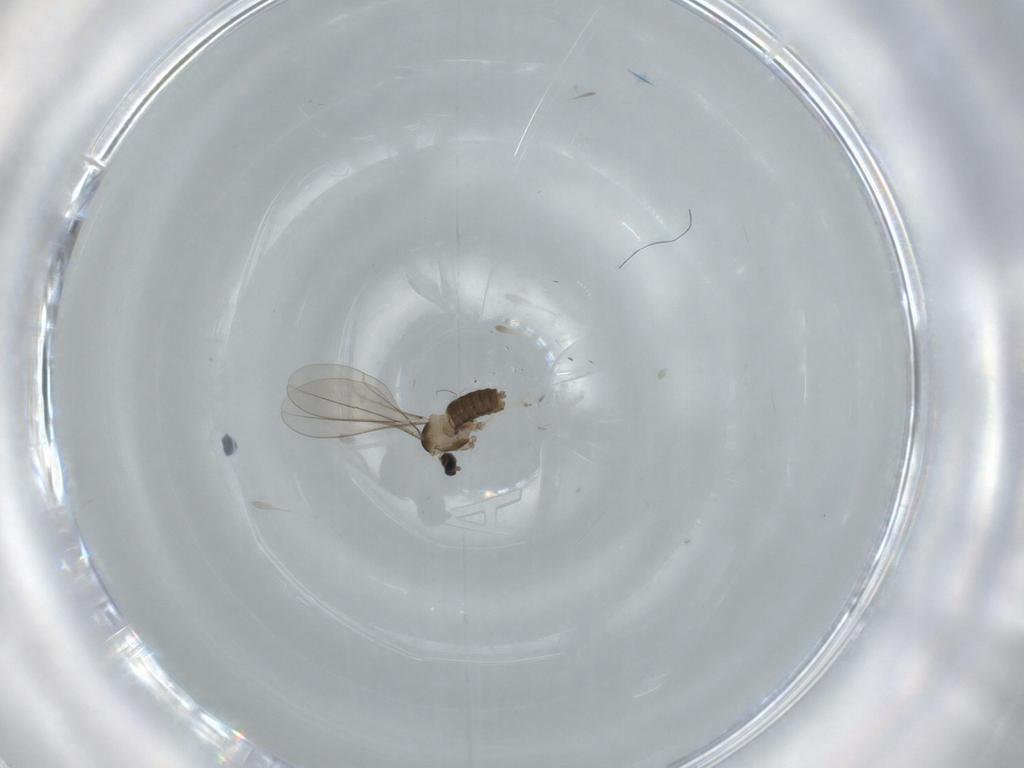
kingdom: Animalia
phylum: Arthropoda
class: Insecta
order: Diptera
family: Cecidomyiidae
